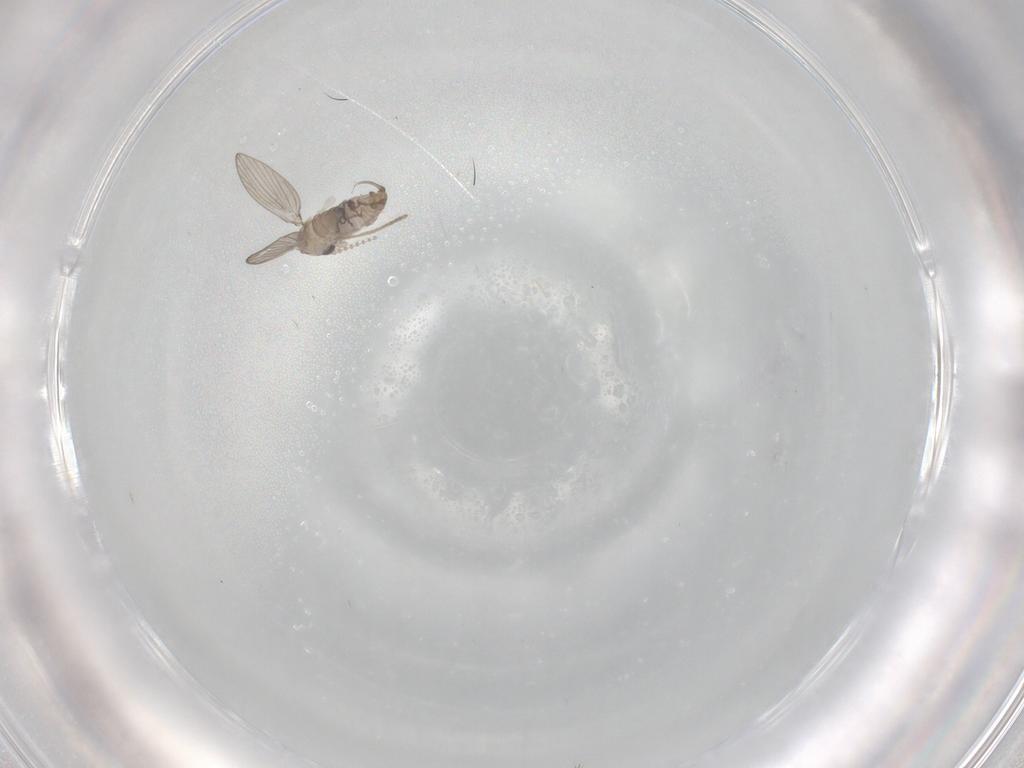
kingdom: Animalia
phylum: Arthropoda
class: Insecta
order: Diptera
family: Psychodidae
